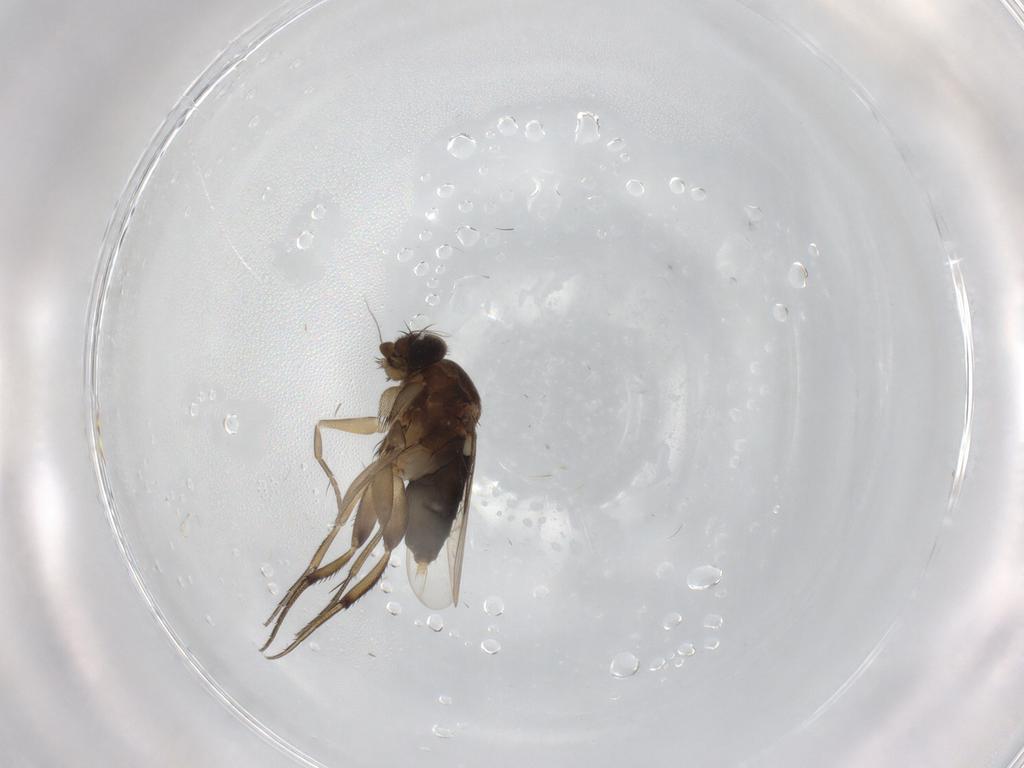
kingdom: Animalia
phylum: Arthropoda
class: Insecta
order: Diptera
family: Phoridae
